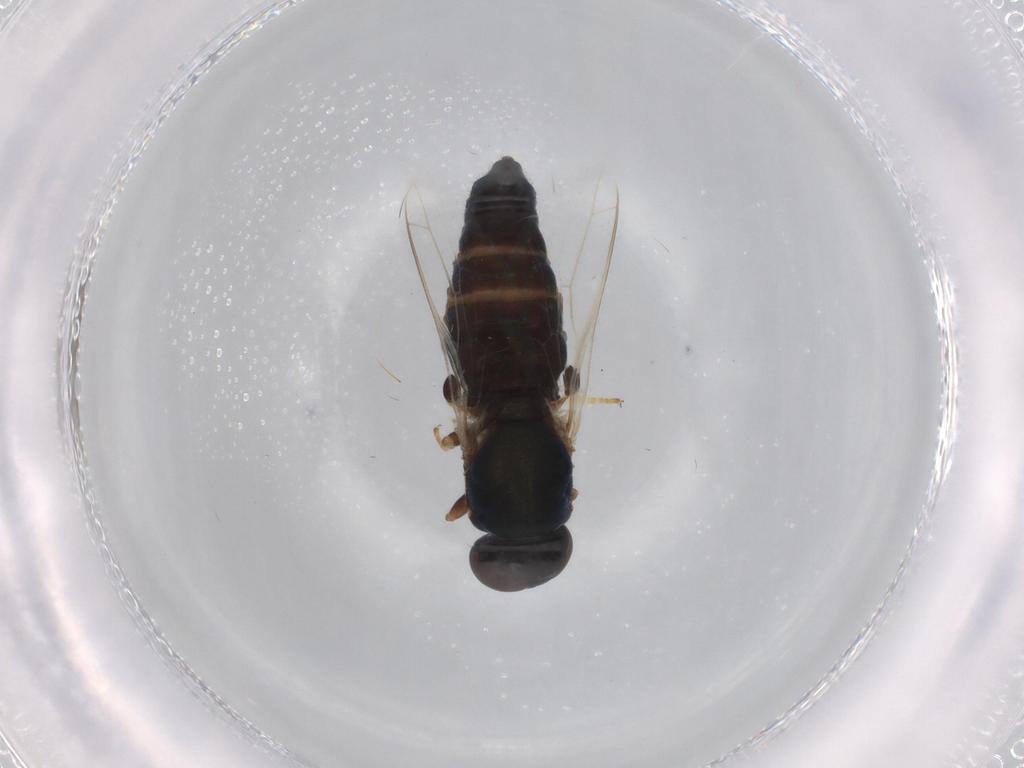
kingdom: Animalia
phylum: Arthropoda
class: Insecta
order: Diptera
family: Scenopinidae
